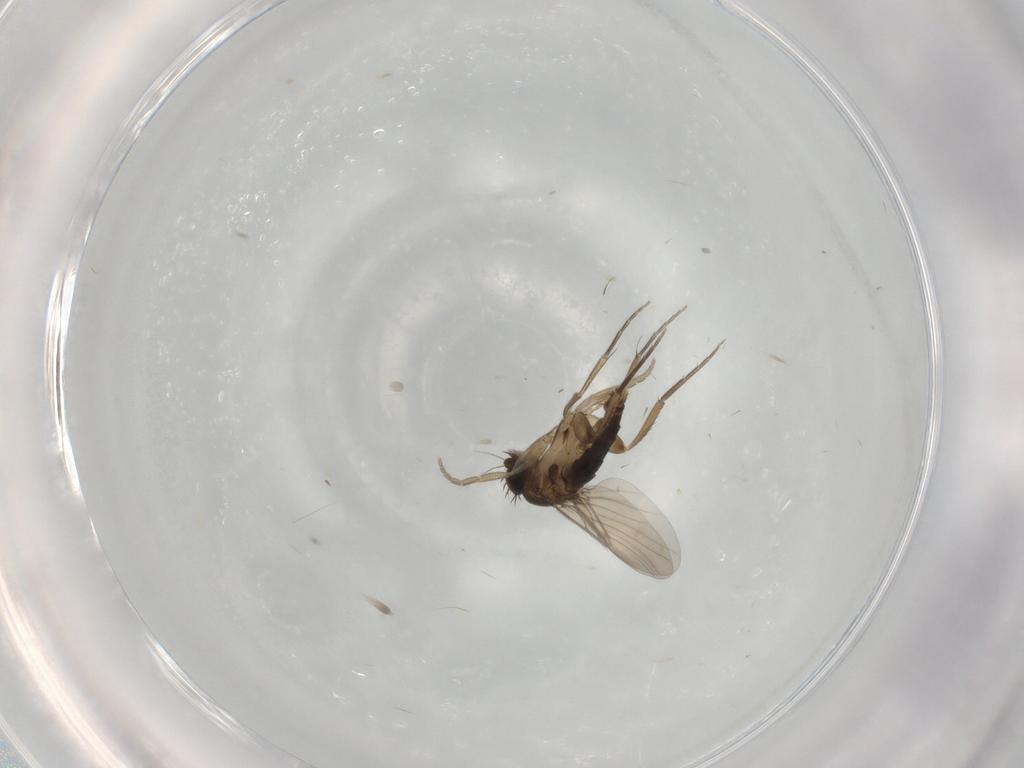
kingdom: Animalia
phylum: Arthropoda
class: Insecta
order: Diptera
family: Phoridae
